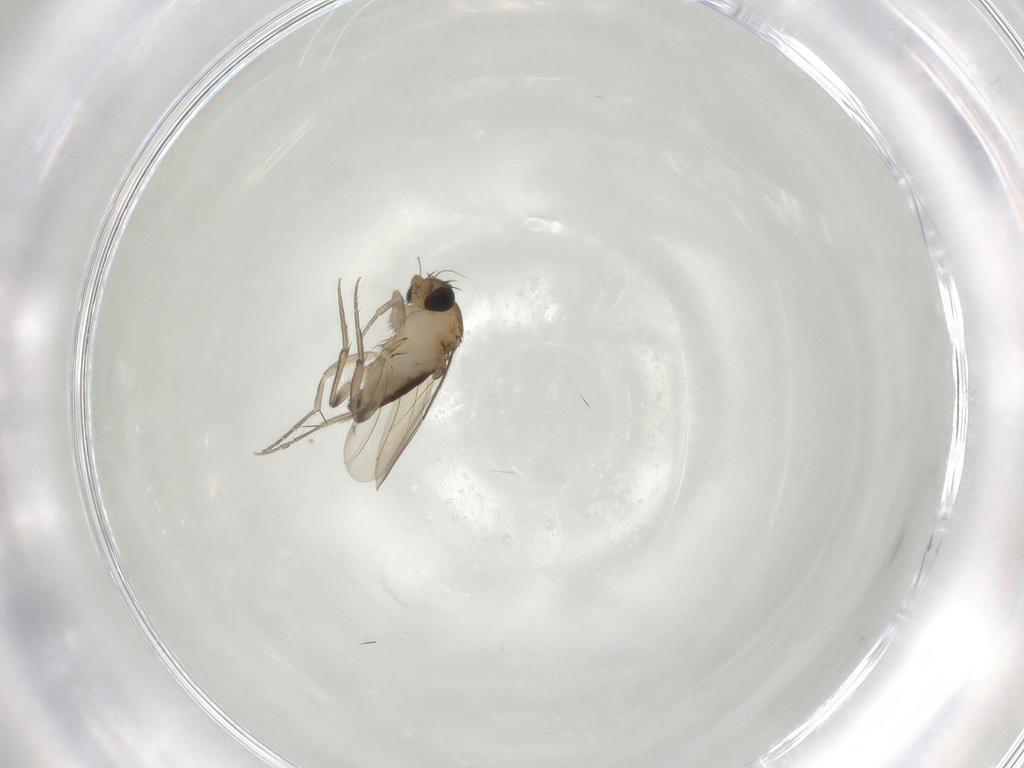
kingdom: Animalia
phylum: Arthropoda
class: Insecta
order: Diptera
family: Phoridae
